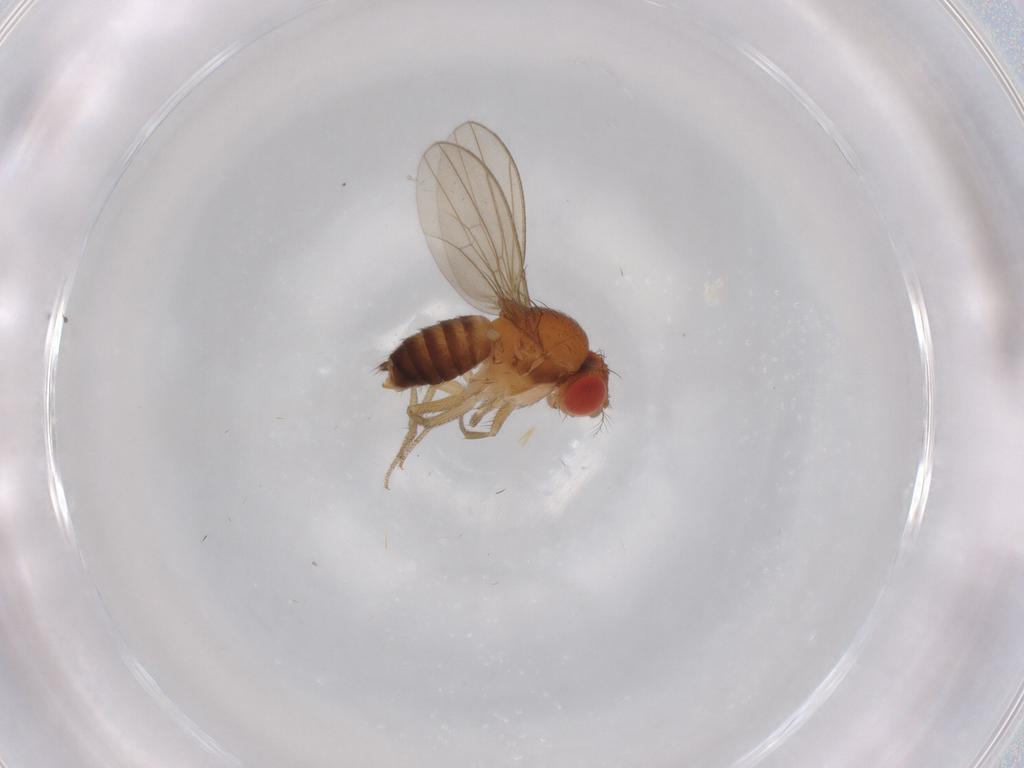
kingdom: Animalia
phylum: Arthropoda
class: Insecta
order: Diptera
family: Drosophilidae
